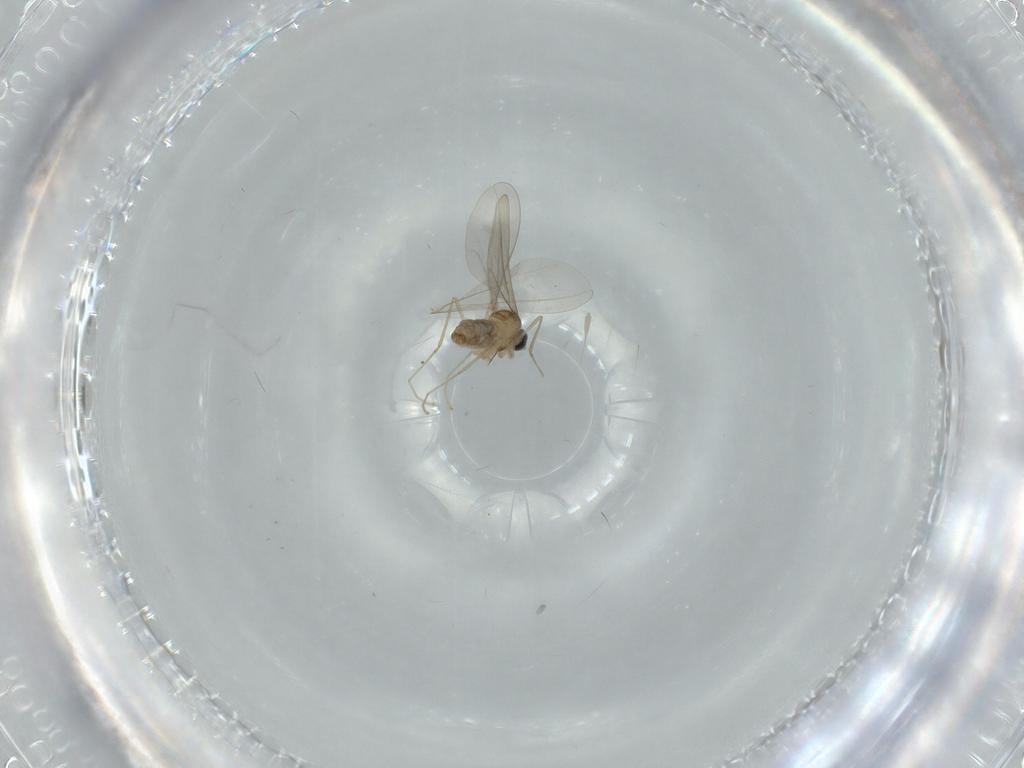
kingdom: Animalia
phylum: Arthropoda
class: Insecta
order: Diptera
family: Cecidomyiidae
